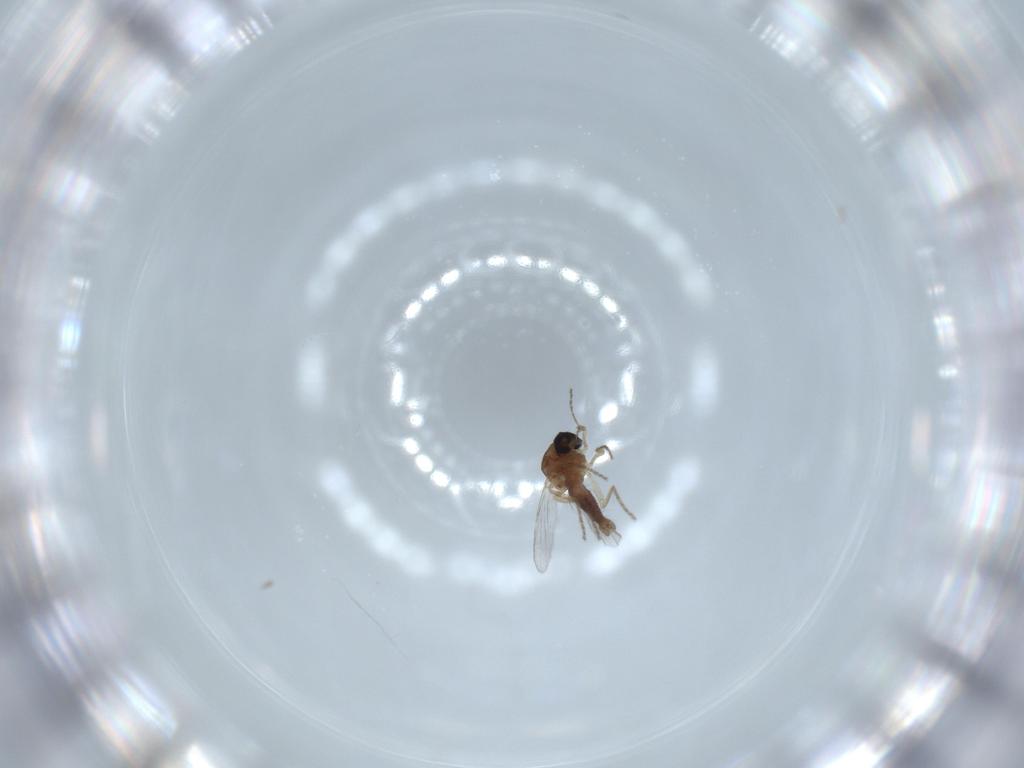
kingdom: Animalia
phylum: Arthropoda
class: Insecta
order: Diptera
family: Ceratopogonidae
